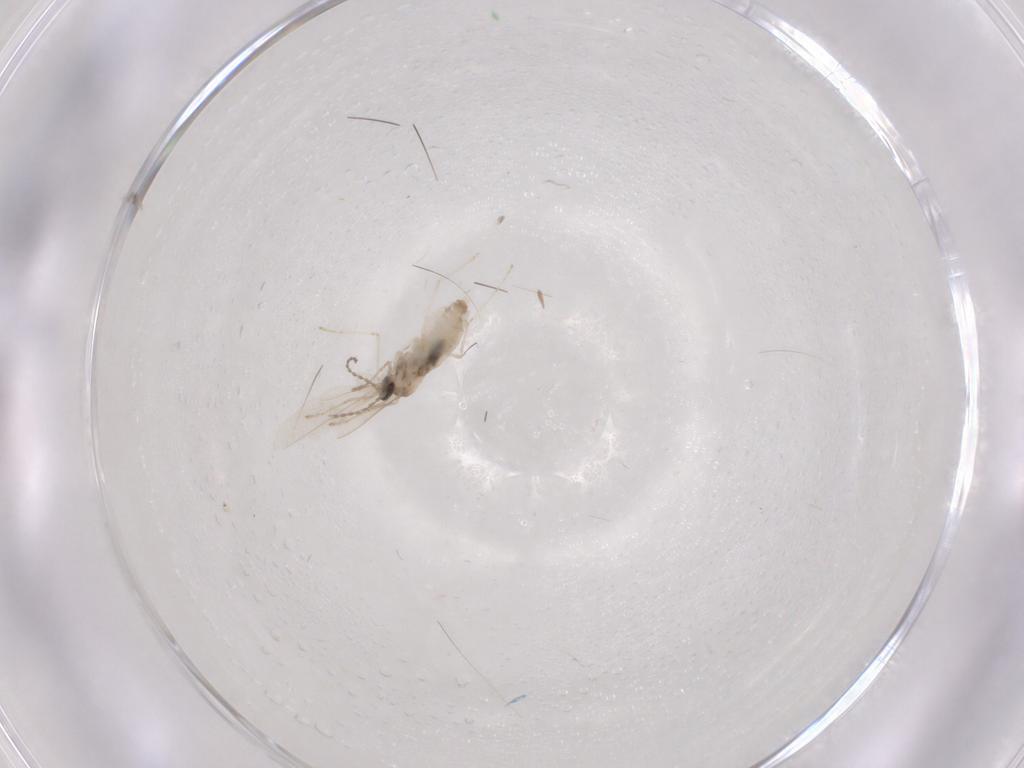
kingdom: Animalia
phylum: Arthropoda
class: Insecta
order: Diptera
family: Cecidomyiidae
